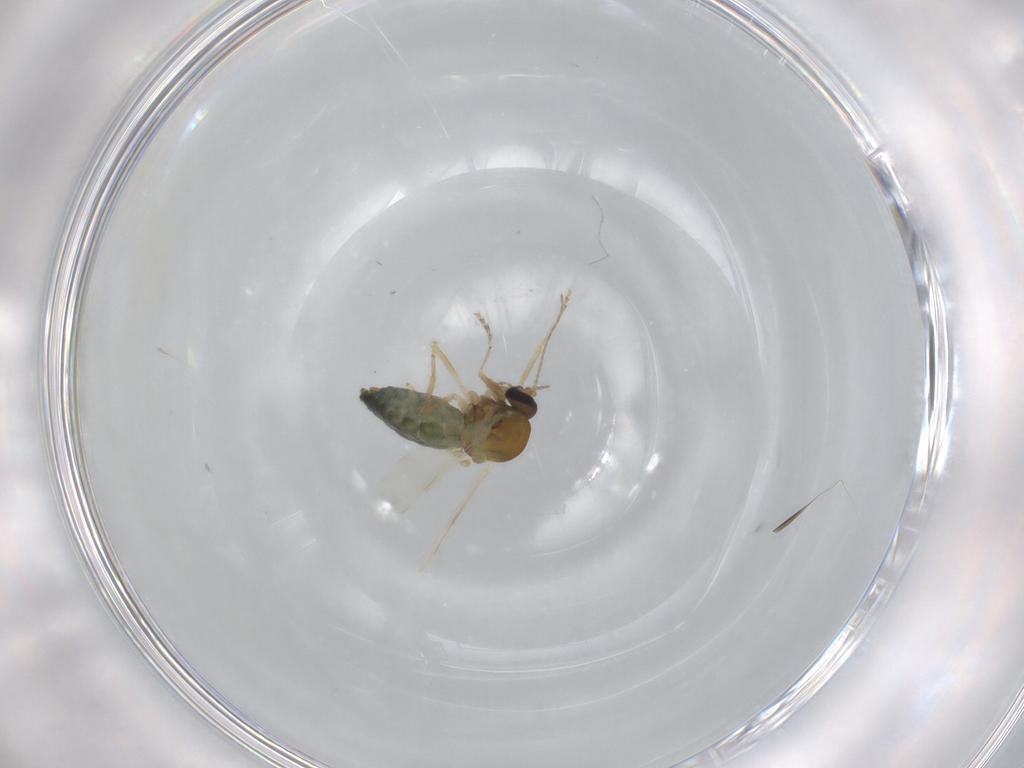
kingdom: Animalia
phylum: Arthropoda
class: Insecta
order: Diptera
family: Ceratopogonidae
